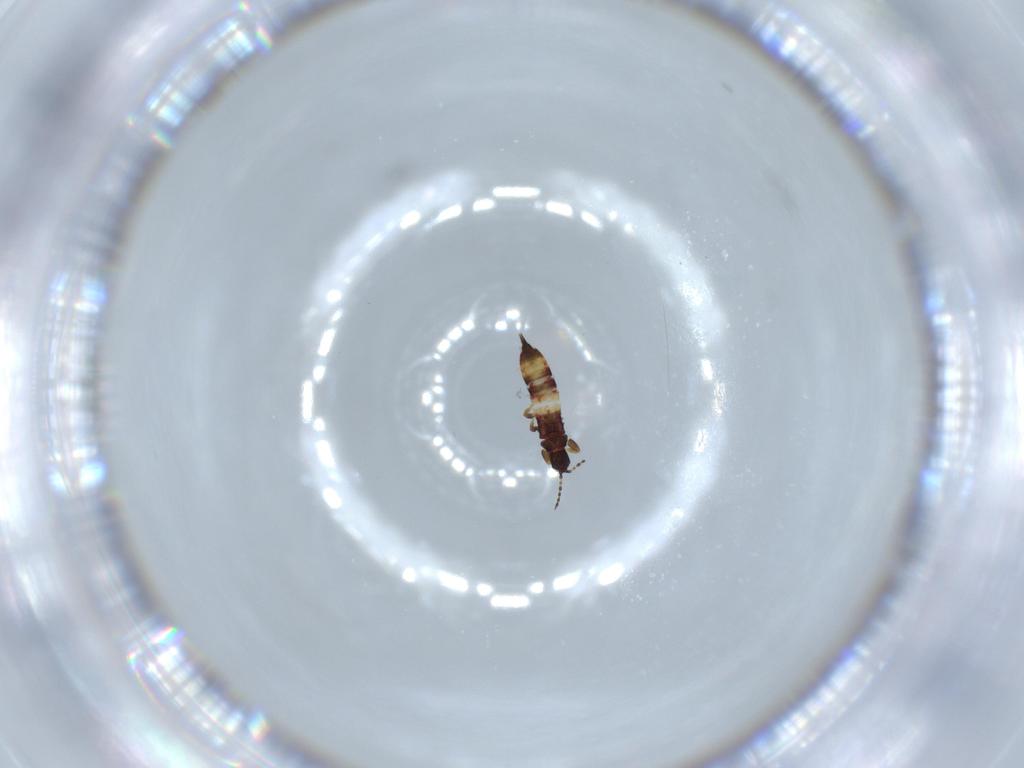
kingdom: Animalia
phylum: Arthropoda
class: Insecta
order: Thysanoptera
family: Phlaeothripidae
